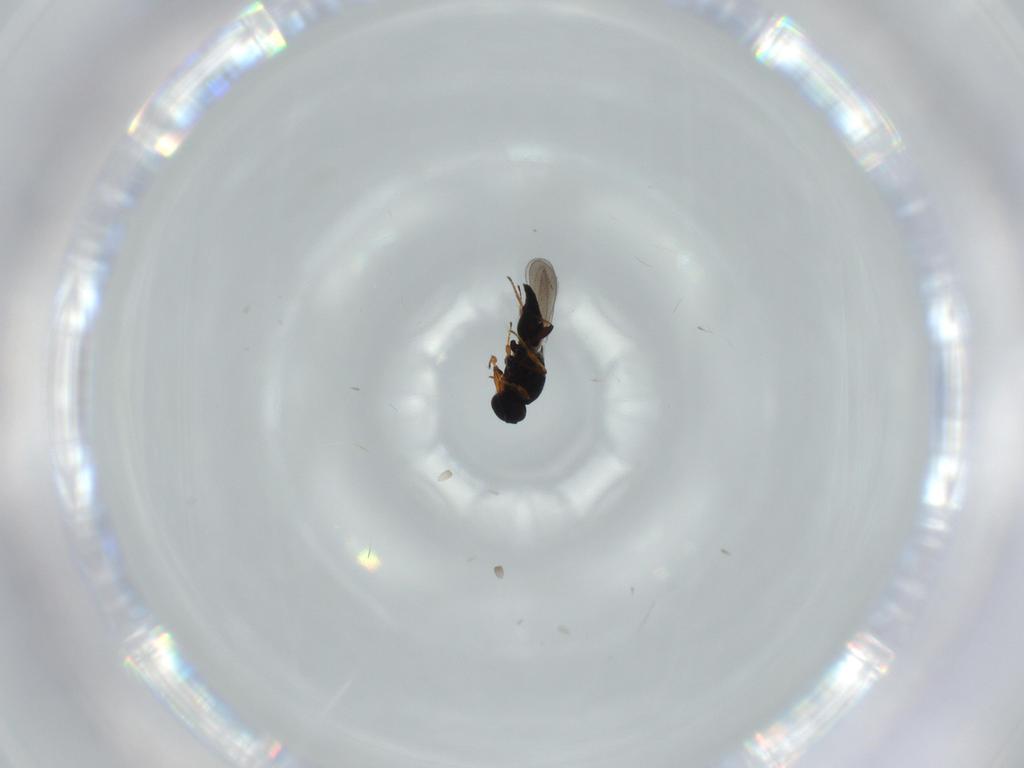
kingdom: Animalia
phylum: Arthropoda
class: Insecta
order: Hymenoptera
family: Platygastridae
